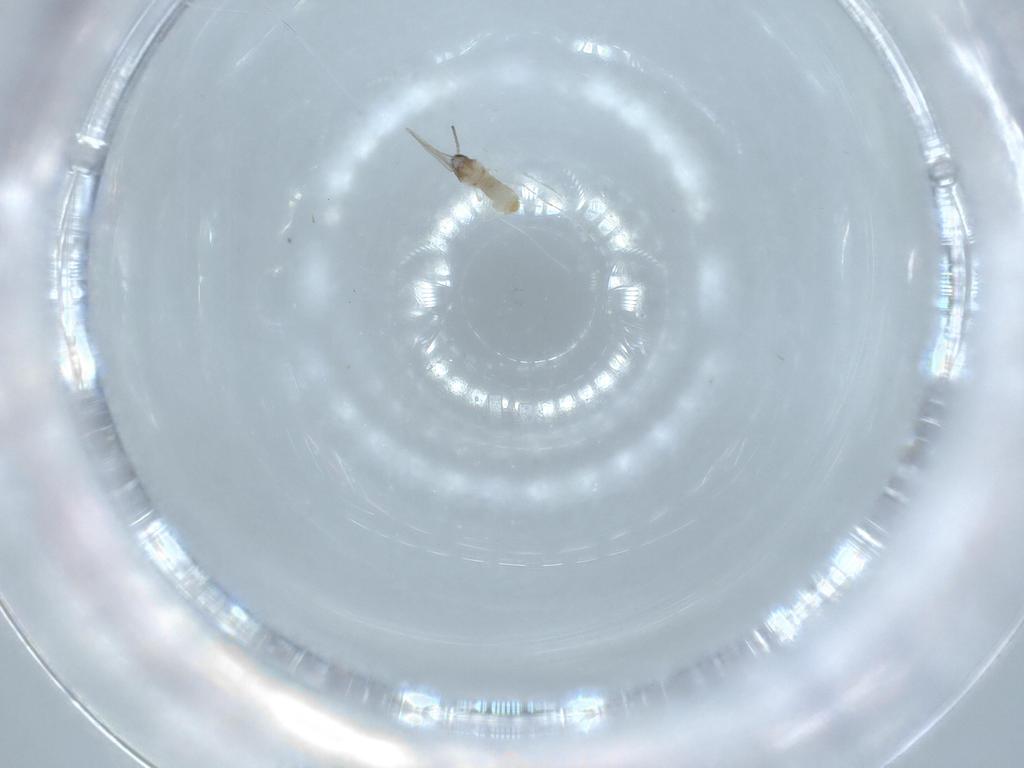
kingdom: Animalia
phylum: Arthropoda
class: Insecta
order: Diptera
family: Cecidomyiidae
